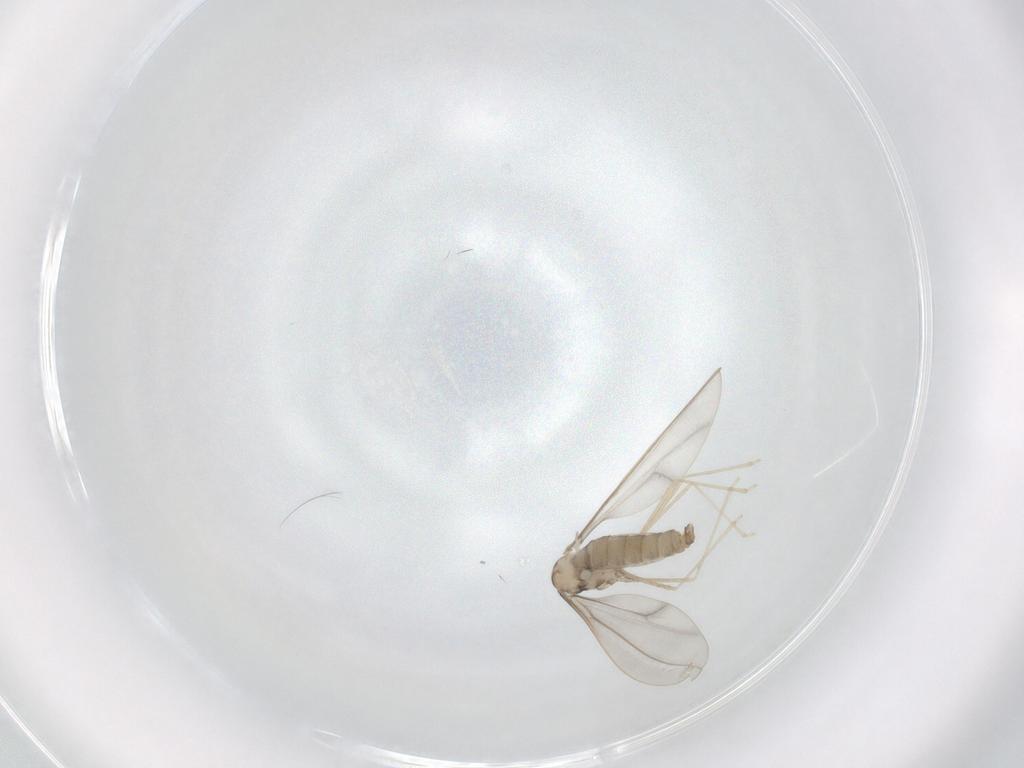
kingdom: Animalia
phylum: Arthropoda
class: Insecta
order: Diptera
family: Cecidomyiidae
